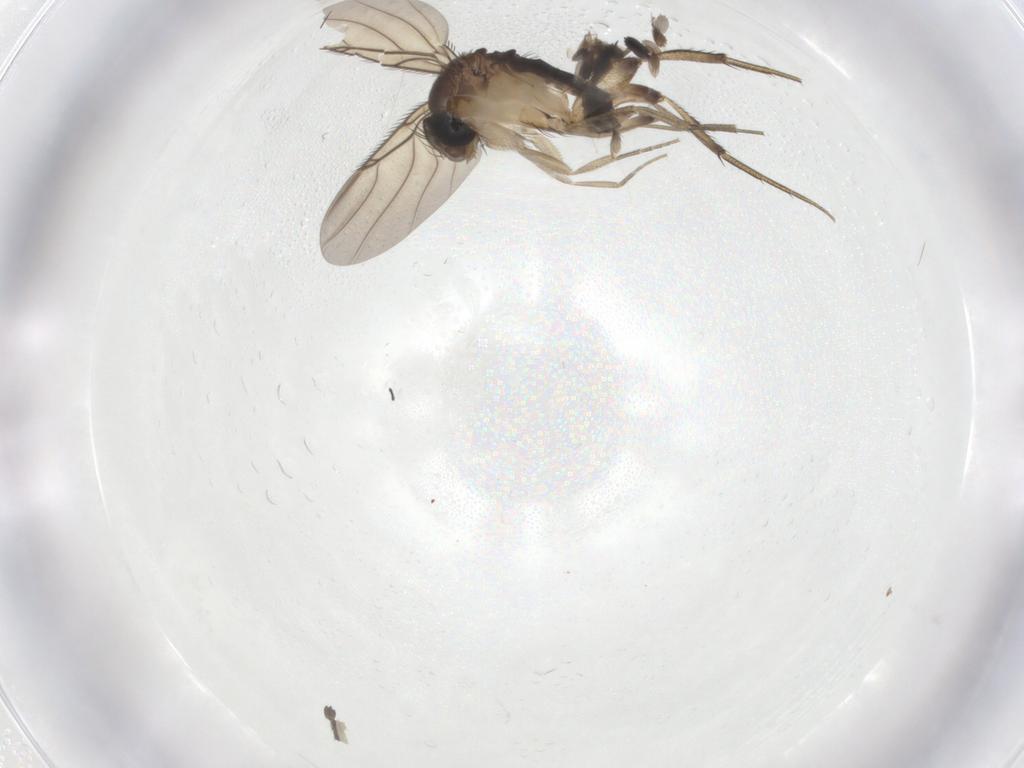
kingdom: Animalia
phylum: Arthropoda
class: Insecta
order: Diptera
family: Phoridae
